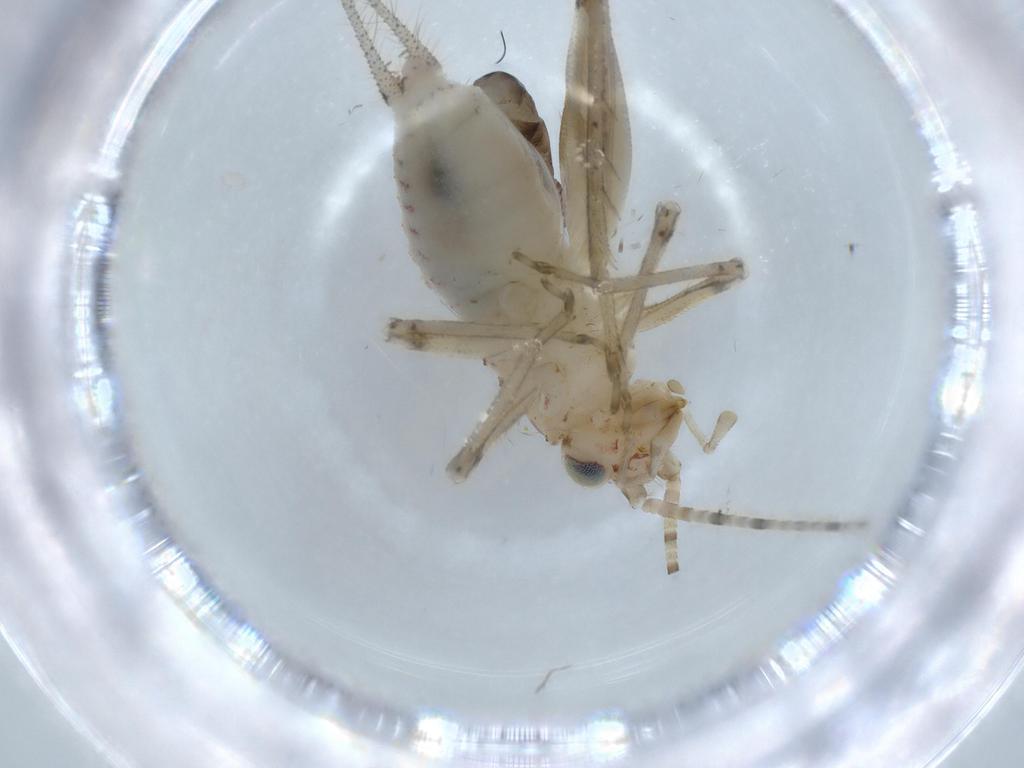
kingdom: Animalia
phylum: Arthropoda
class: Insecta
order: Orthoptera
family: Trigonidiidae
